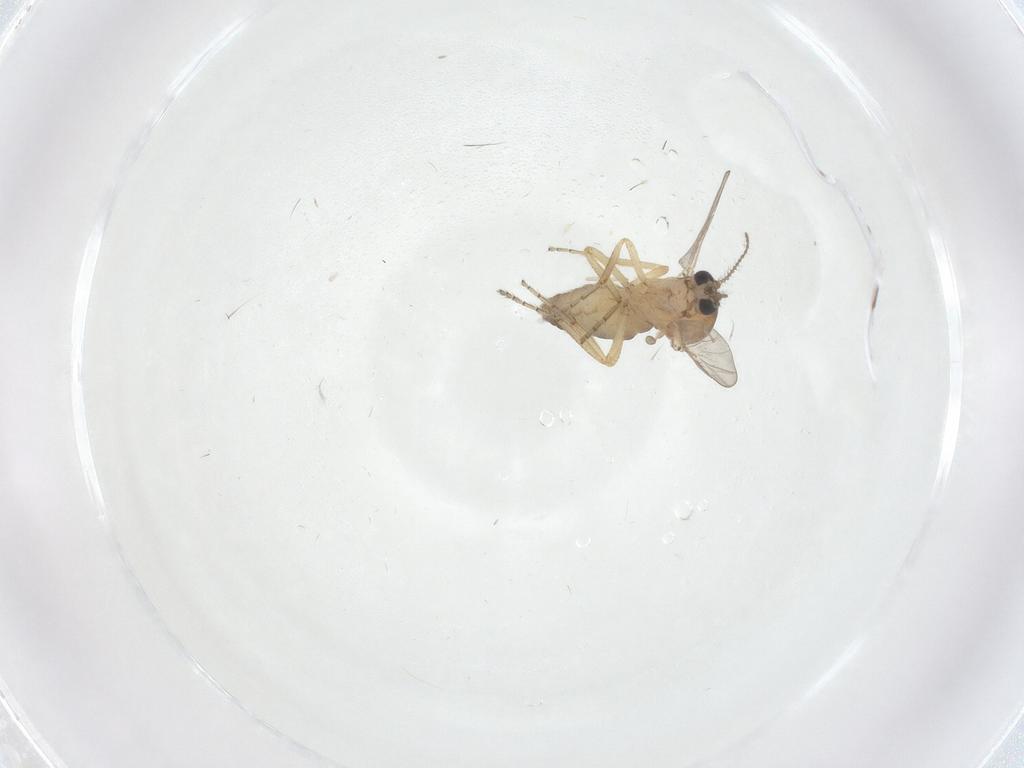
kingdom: Animalia
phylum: Arthropoda
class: Insecta
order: Diptera
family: Ceratopogonidae
